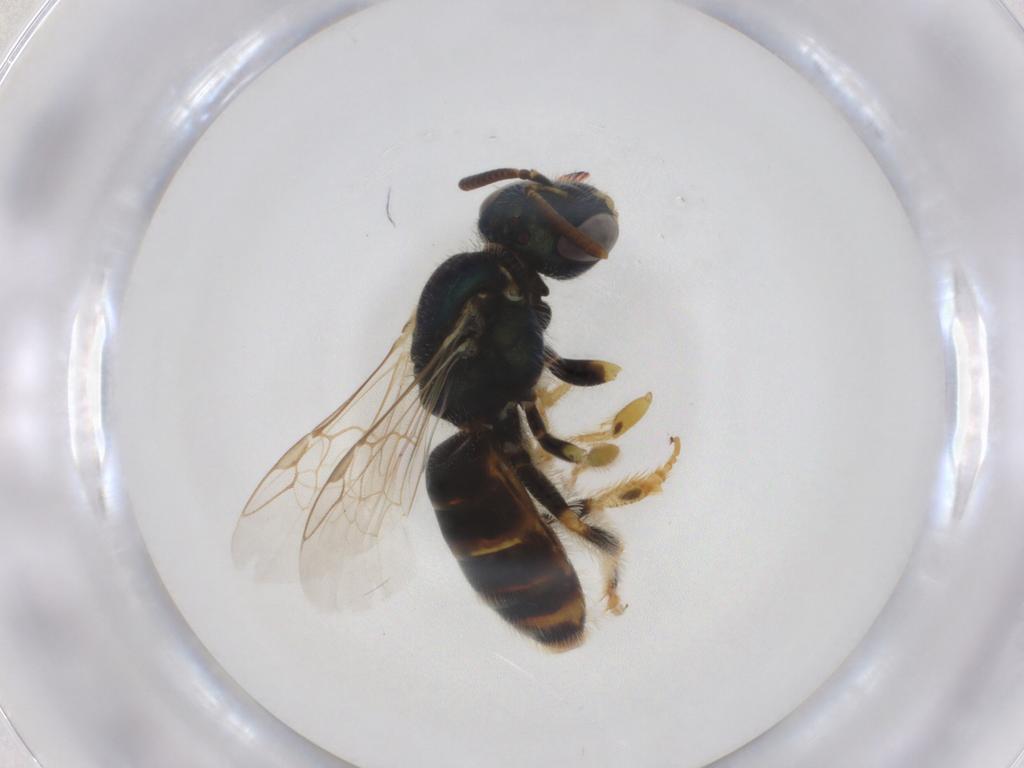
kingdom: Animalia
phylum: Arthropoda
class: Insecta
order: Hymenoptera
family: Halictidae
